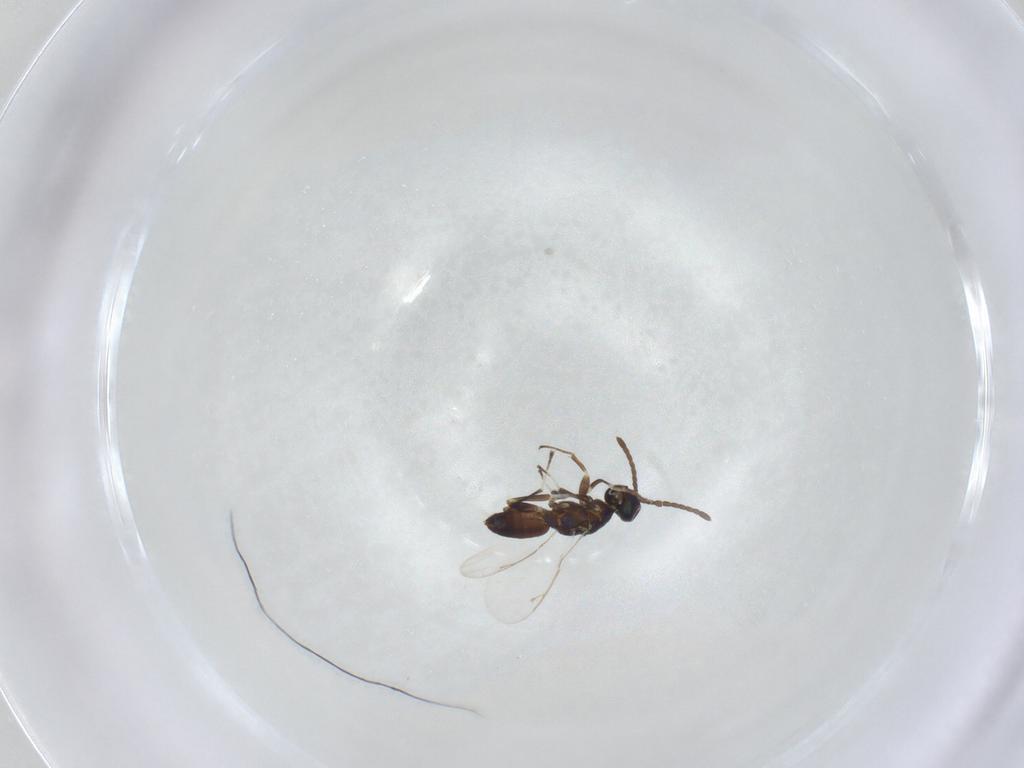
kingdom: Animalia
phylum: Arthropoda
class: Insecta
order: Hymenoptera
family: Eupelmidae
